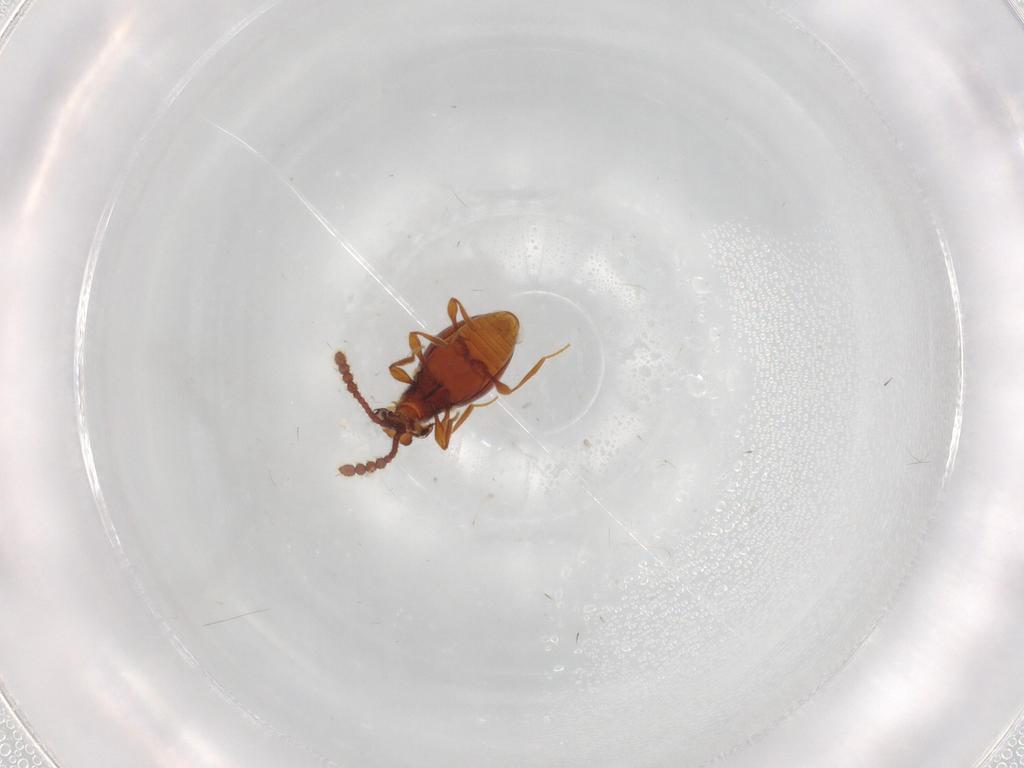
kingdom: Animalia
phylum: Arthropoda
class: Insecta
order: Coleoptera
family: Staphylinidae
